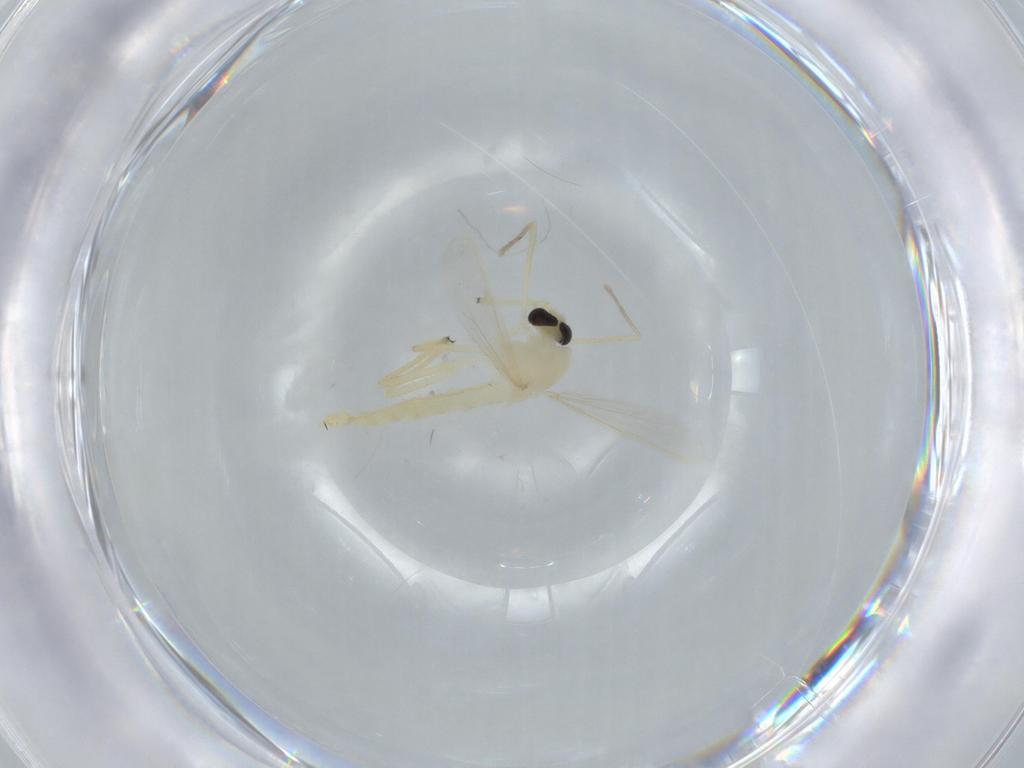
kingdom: Animalia
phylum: Arthropoda
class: Insecta
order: Diptera
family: Chironomidae
